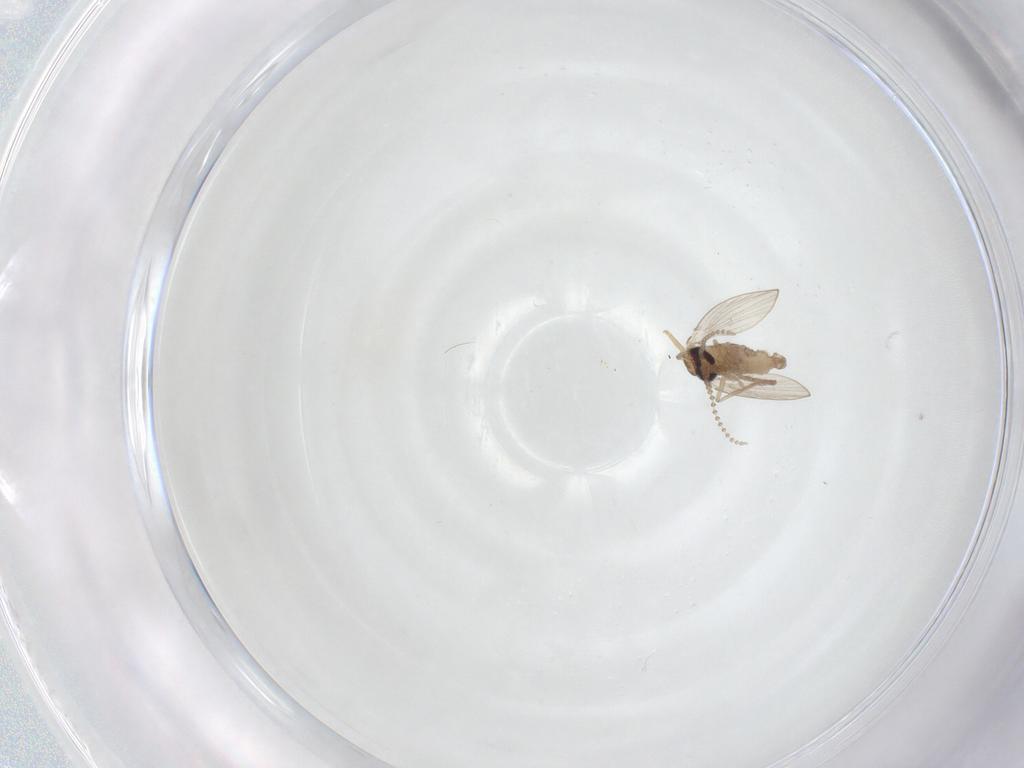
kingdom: Animalia
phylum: Arthropoda
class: Insecta
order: Diptera
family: Psychodidae
